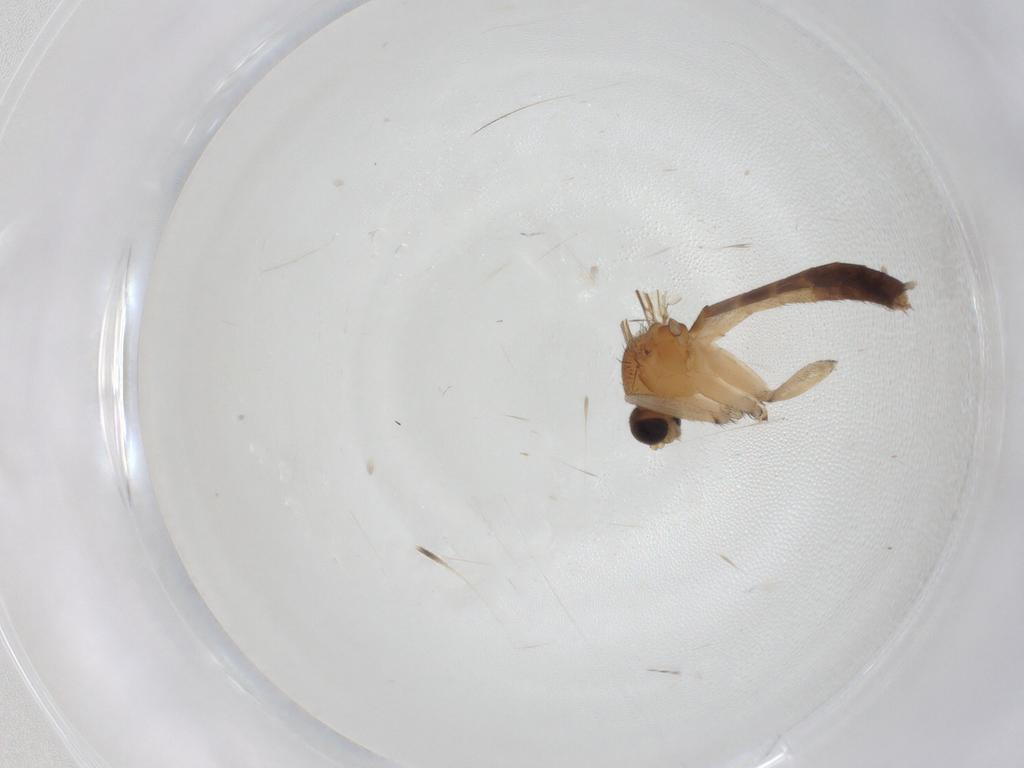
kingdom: Animalia
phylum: Arthropoda
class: Insecta
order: Diptera
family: Keroplatidae
